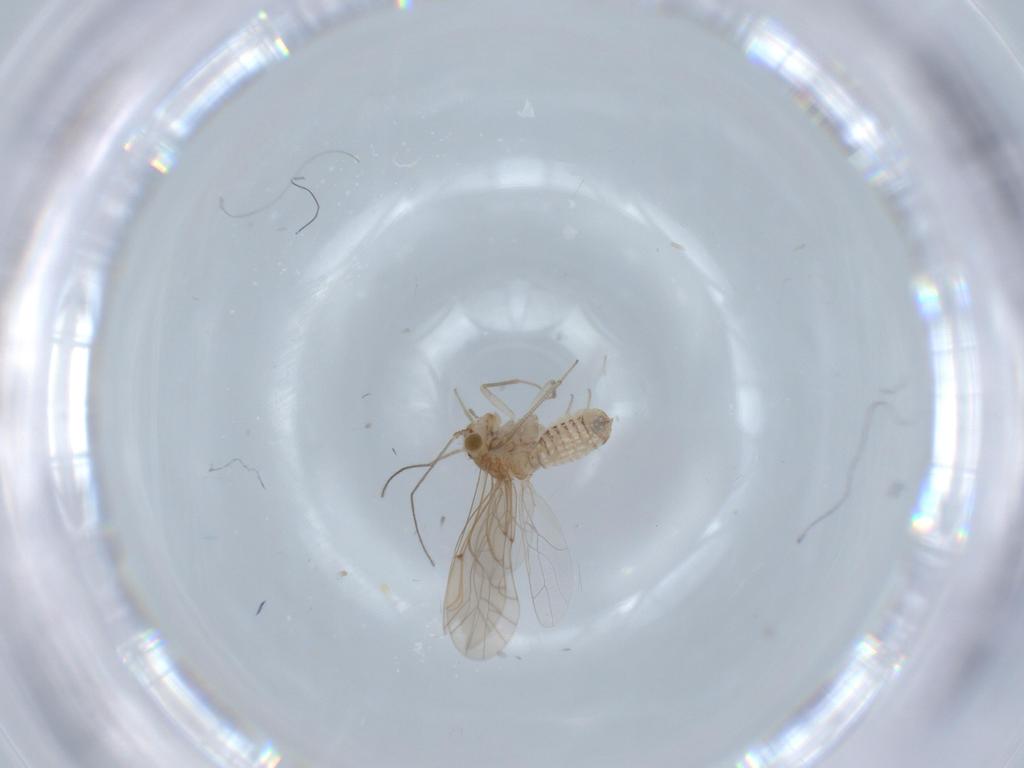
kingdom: Animalia
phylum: Arthropoda
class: Insecta
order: Psocodea
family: Lachesillidae
